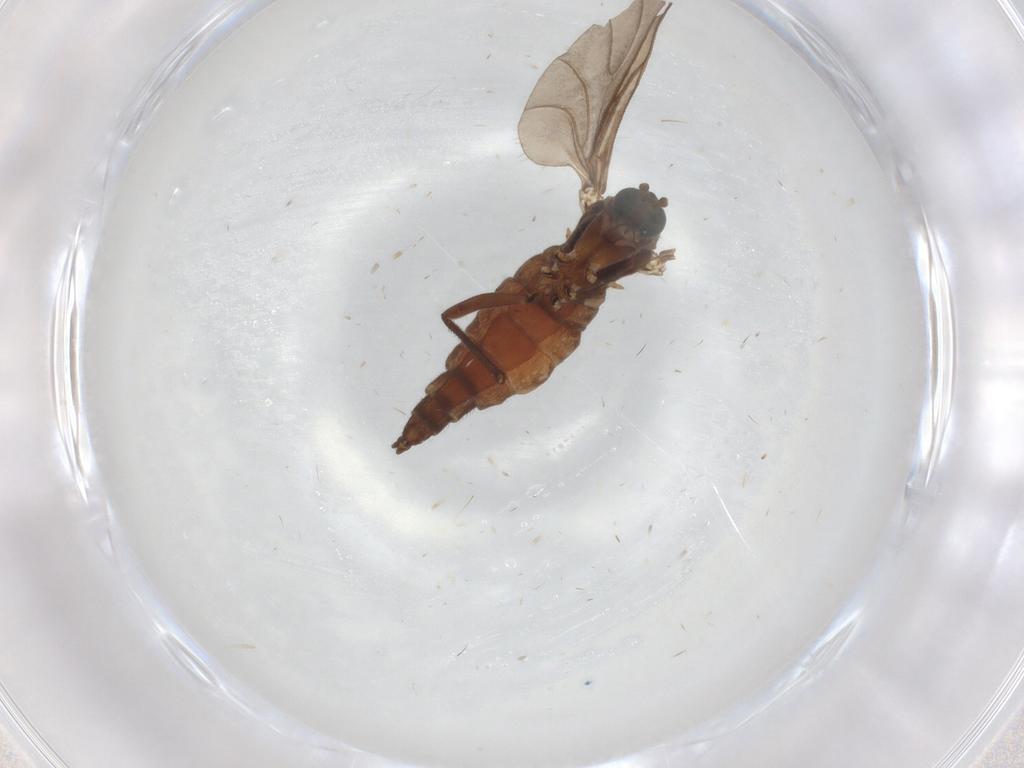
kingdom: Animalia
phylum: Arthropoda
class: Insecta
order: Diptera
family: Sciaridae
